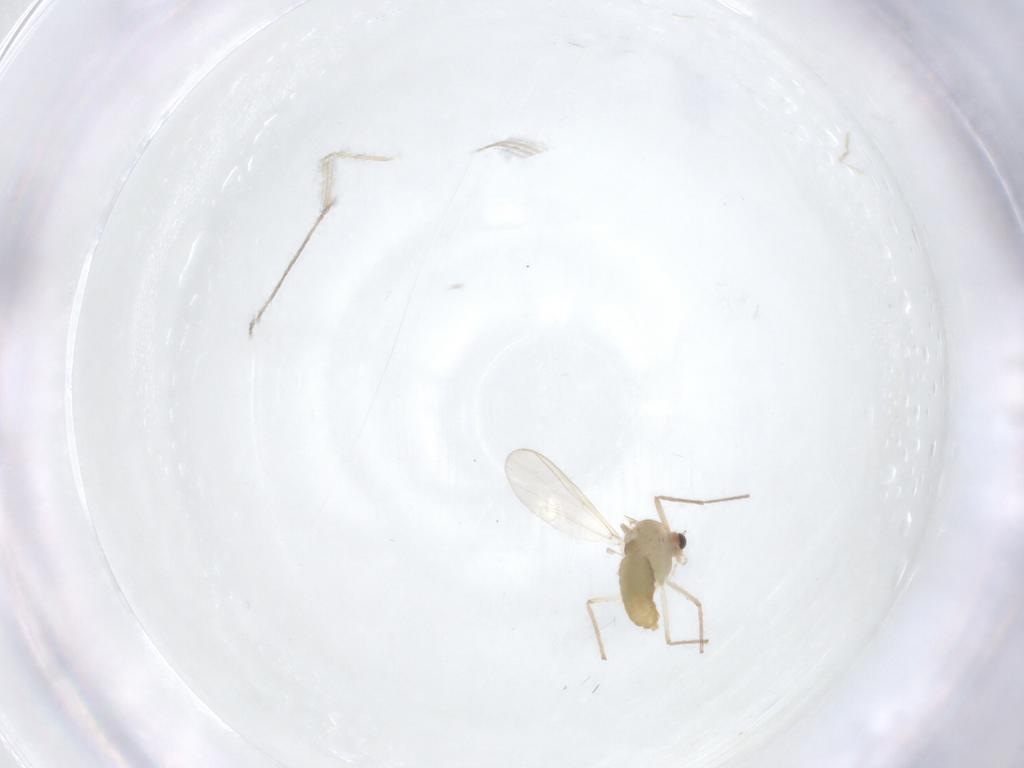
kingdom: Animalia
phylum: Arthropoda
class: Insecta
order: Diptera
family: Chironomidae
